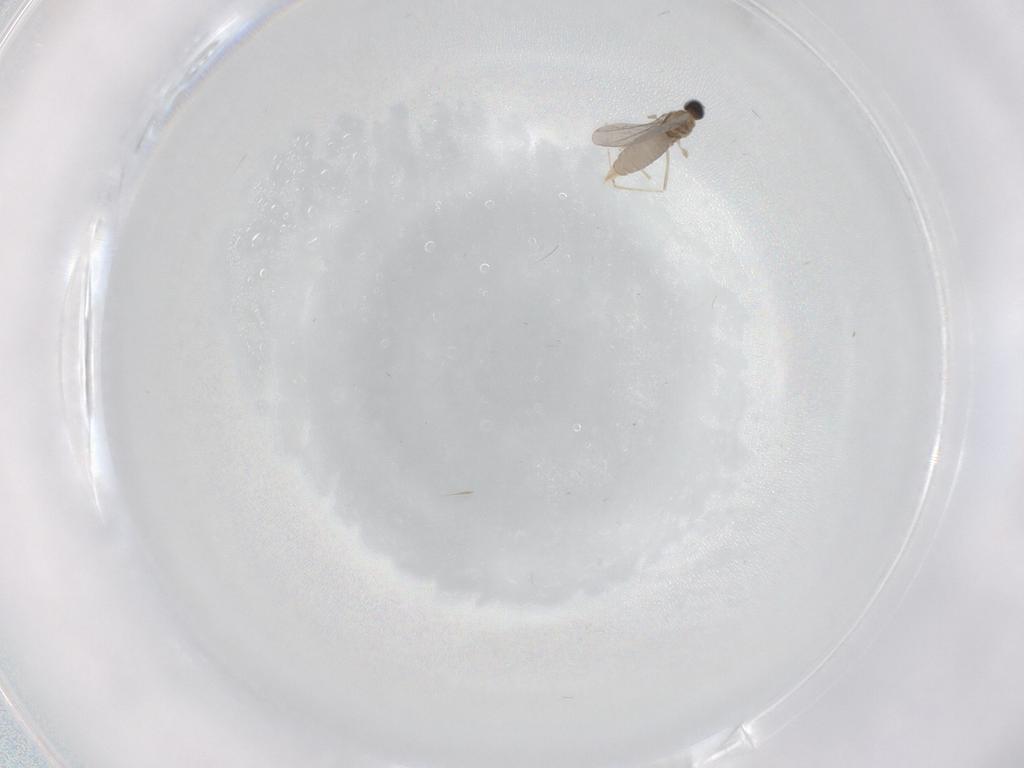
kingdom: Animalia
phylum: Arthropoda
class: Insecta
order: Diptera
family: Cecidomyiidae
